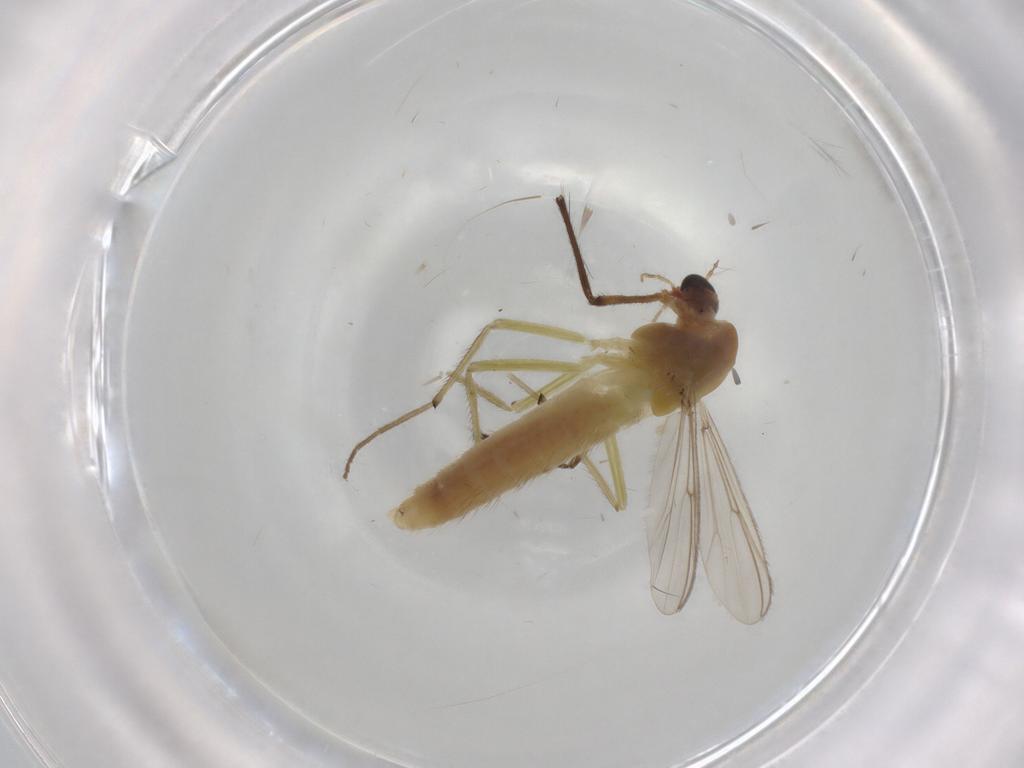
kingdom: Animalia
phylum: Arthropoda
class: Insecta
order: Diptera
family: Chironomidae
